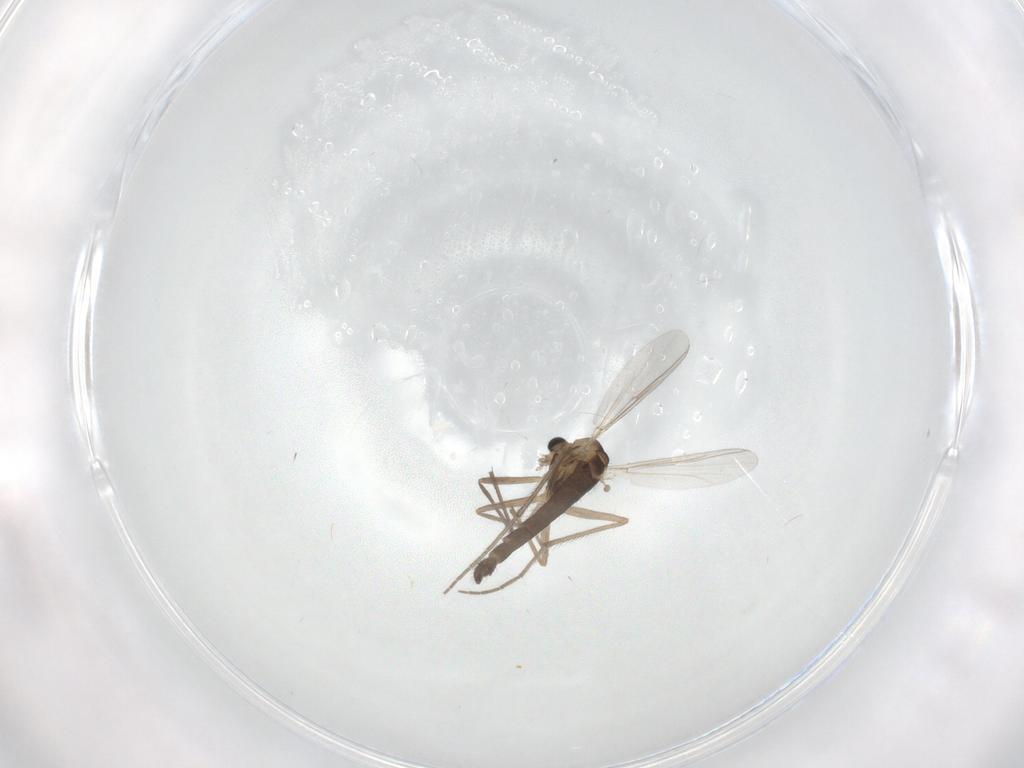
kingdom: Animalia
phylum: Arthropoda
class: Insecta
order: Diptera
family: Chironomidae
